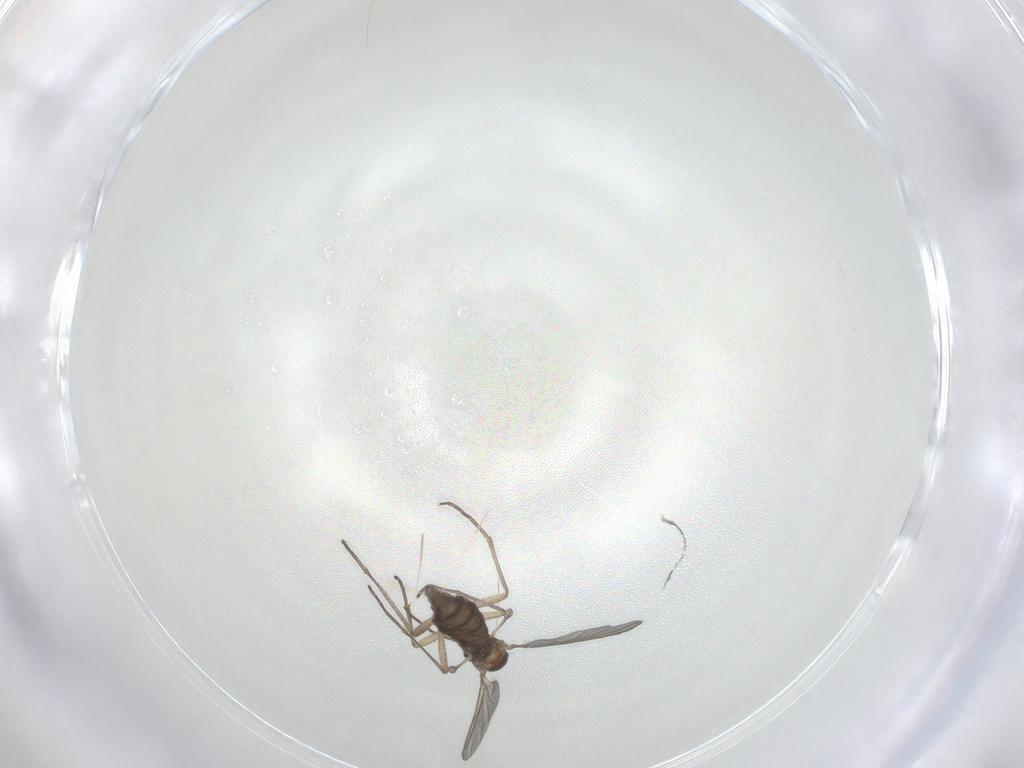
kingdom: Animalia
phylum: Arthropoda
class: Insecta
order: Diptera
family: Sciaridae
